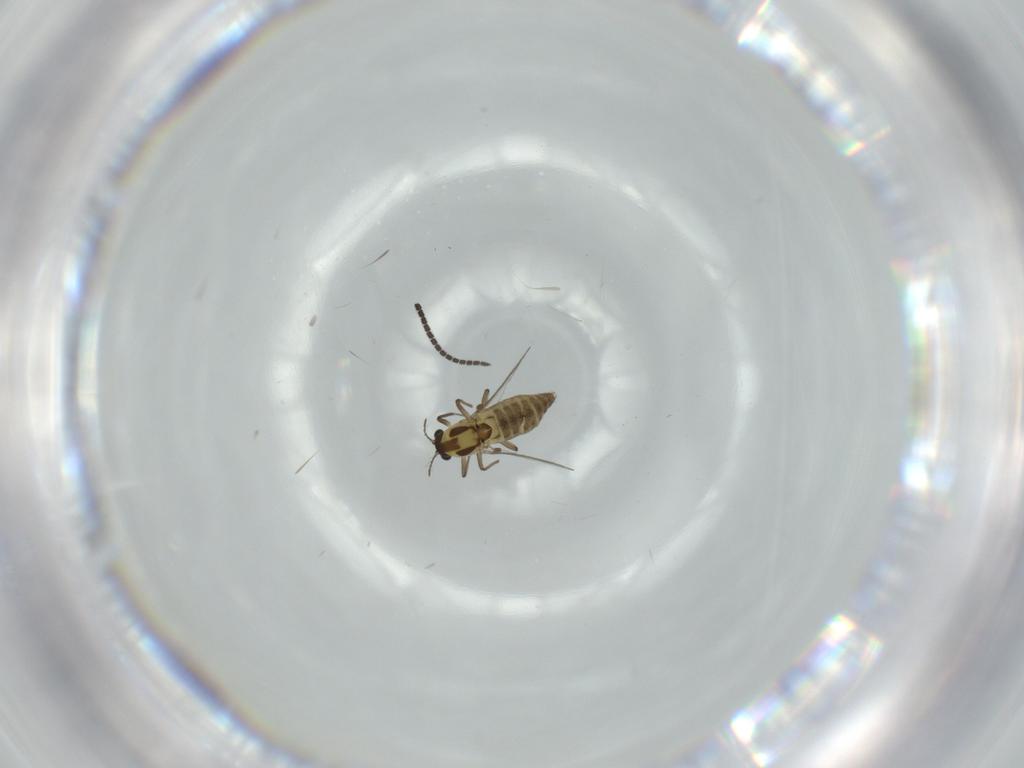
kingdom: Animalia
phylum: Arthropoda
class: Insecta
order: Diptera
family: Chironomidae
